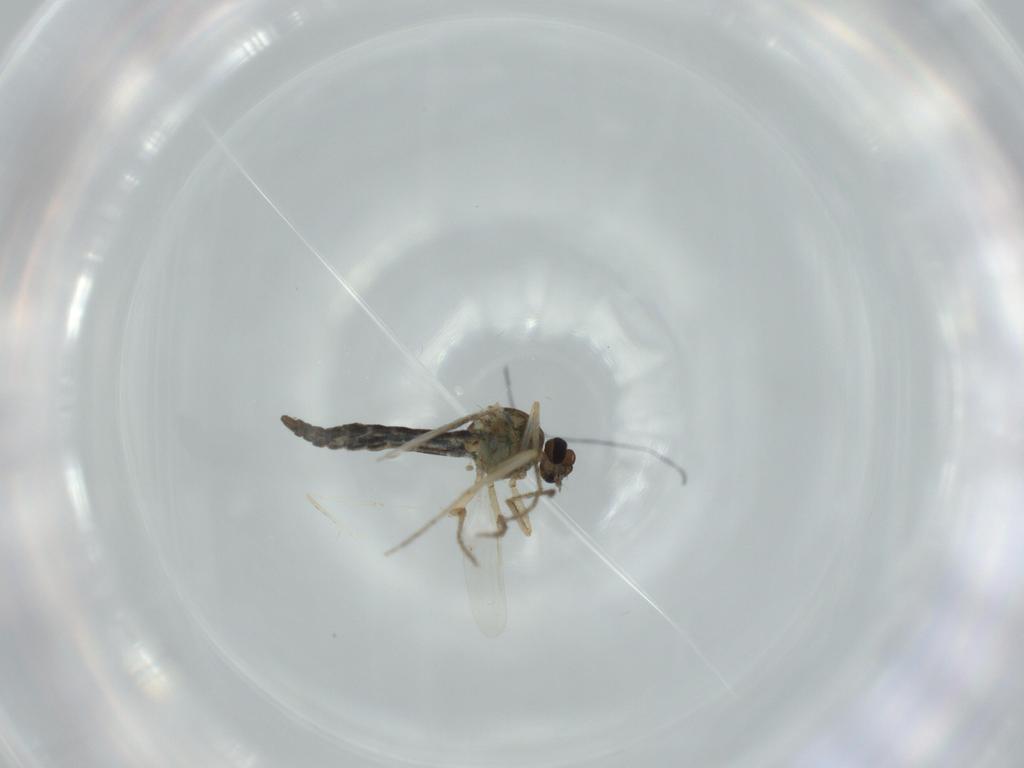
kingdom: Animalia
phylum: Arthropoda
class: Insecta
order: Diptera
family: Ceratopogonidae
